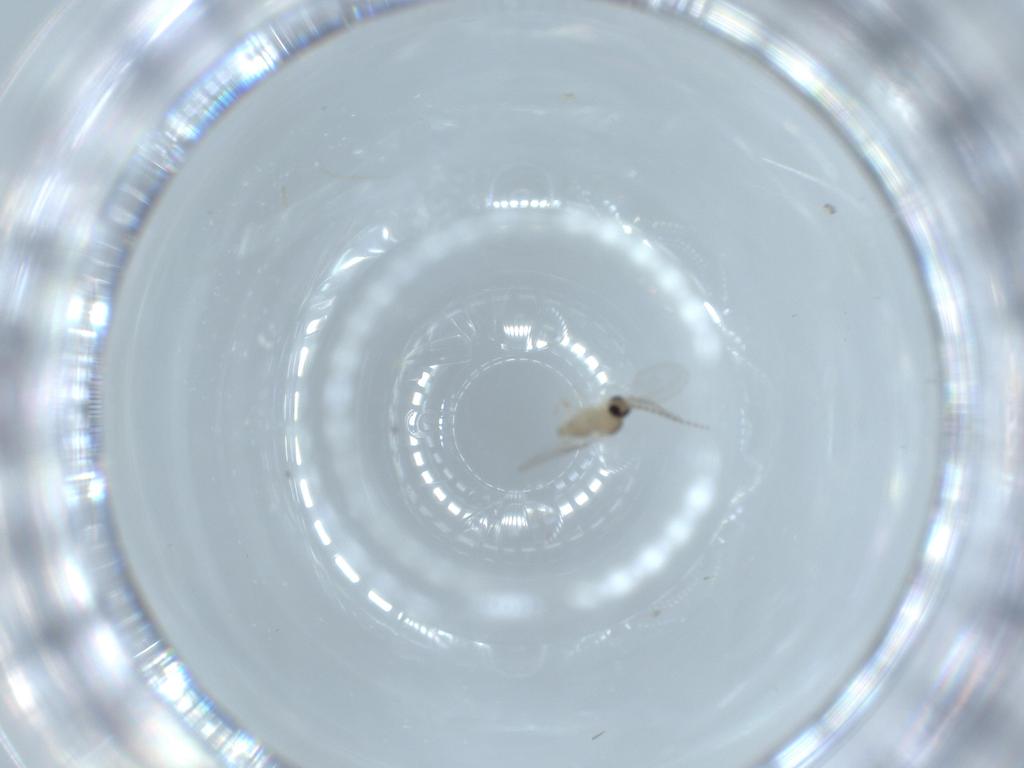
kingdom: Animalia
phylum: Arthropoda
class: Insecta
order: Diptera
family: Cecidomyiidae
